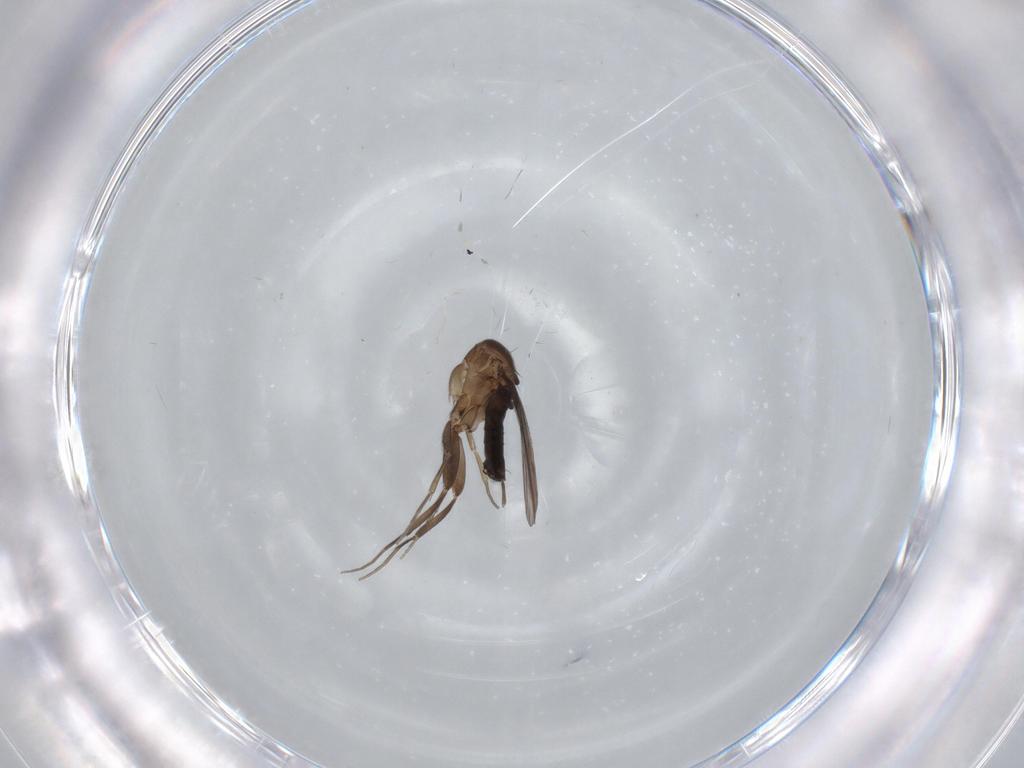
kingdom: Animalia
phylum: Arthropoda
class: Insecta
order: Diptera
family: Phoridae
